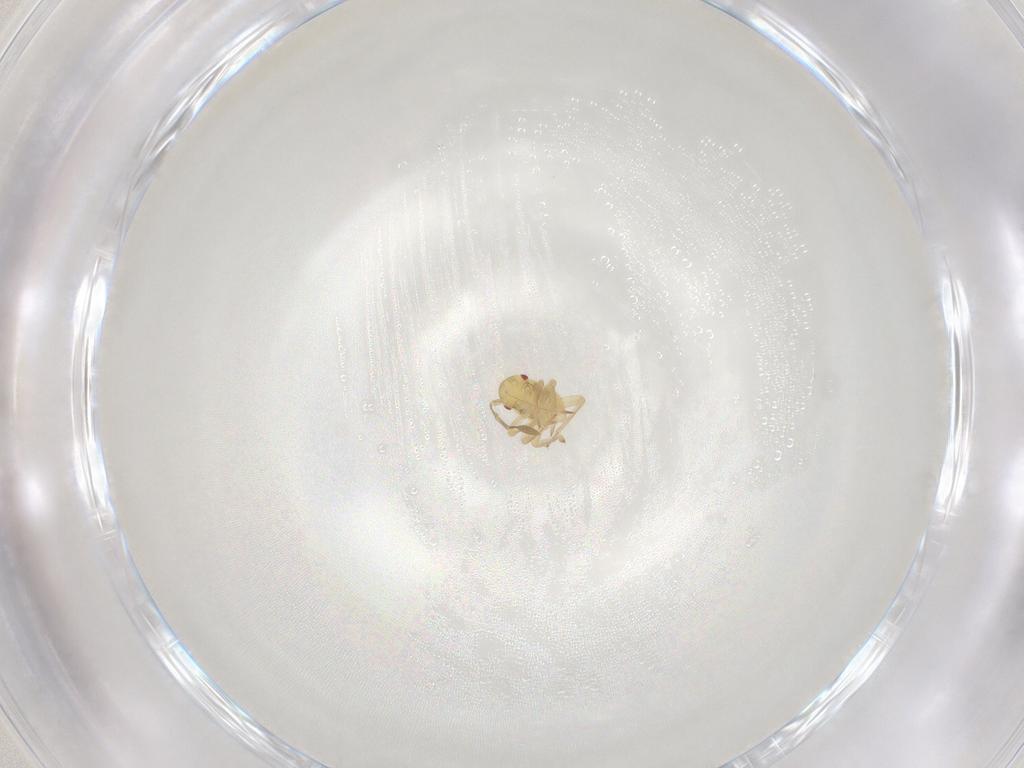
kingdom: Animalia
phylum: Arthropoda
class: Insecta
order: Hemiptera
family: Miridae
